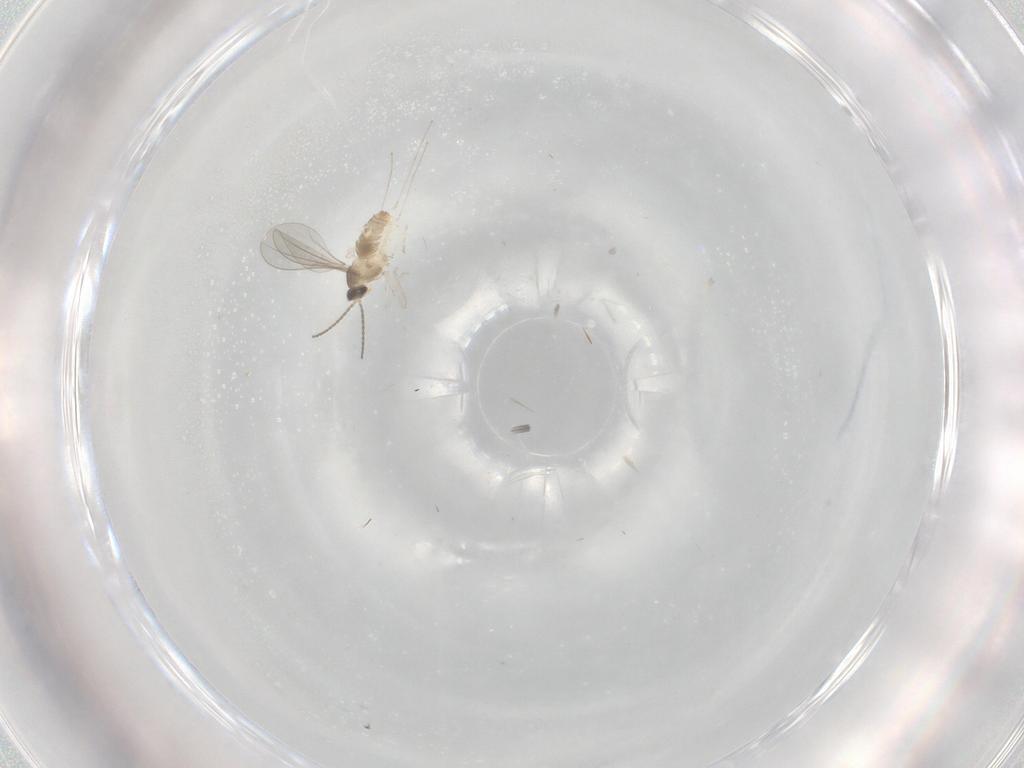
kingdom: Animalia
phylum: Arthropoda
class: Insecta
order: Diptera
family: Cecidomyiidae
